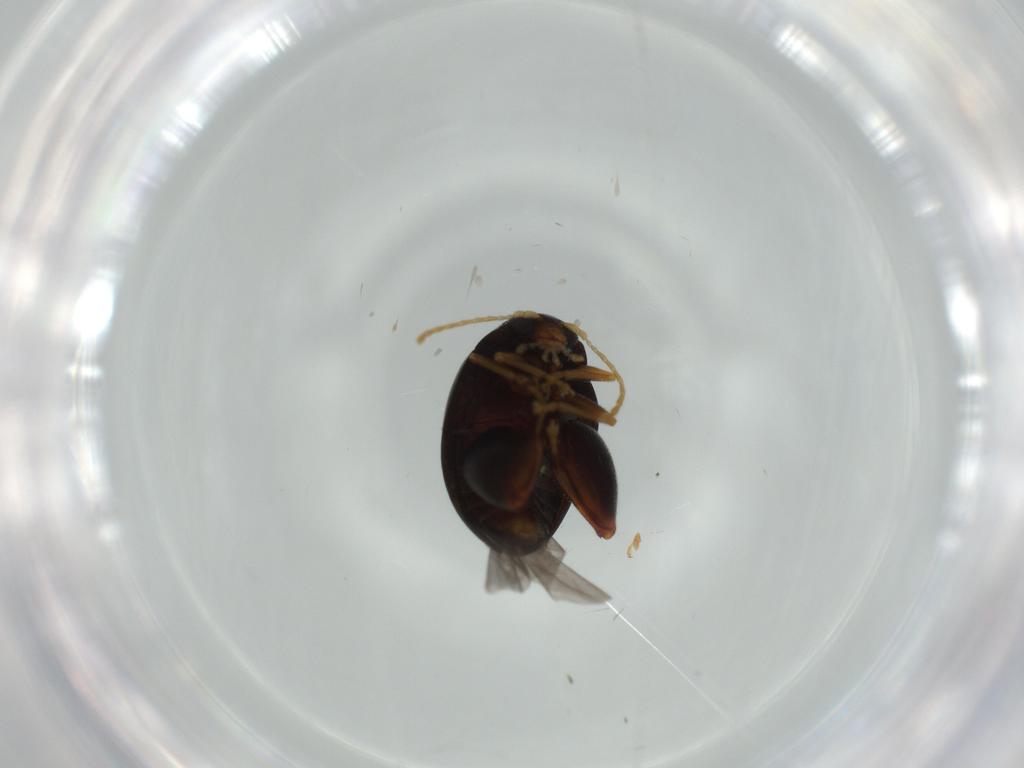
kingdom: Animalia
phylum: Arthropoda
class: Insecta
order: Coleoptera
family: Chrysomelidae
